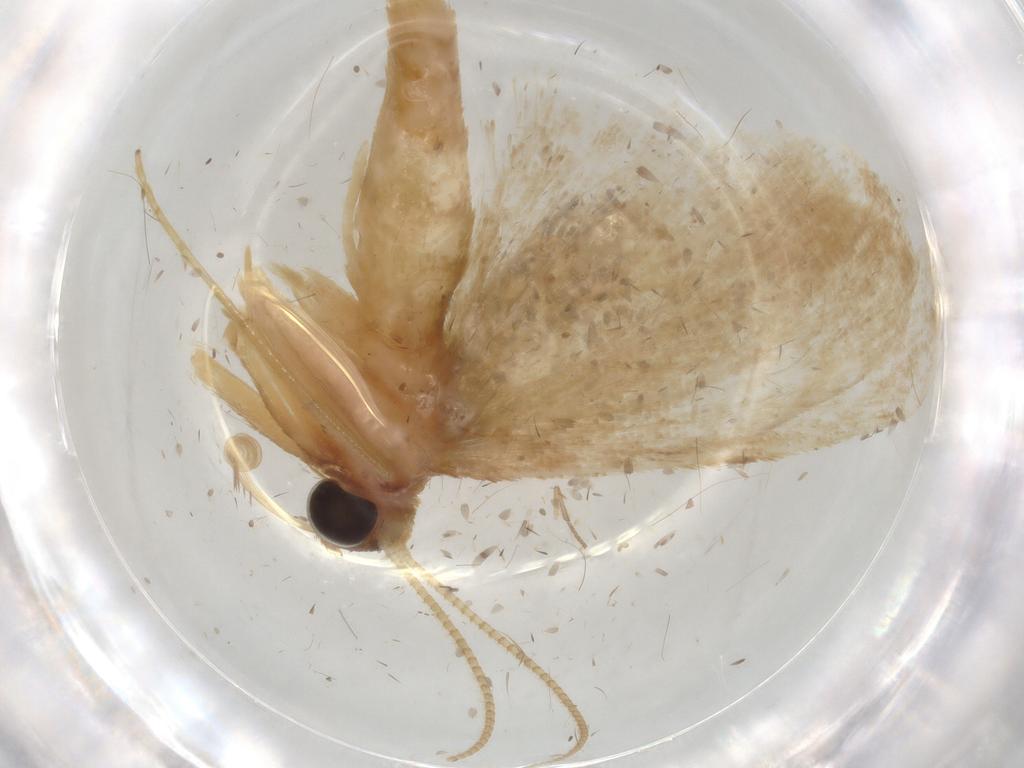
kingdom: Animalia
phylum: Arthropoda
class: Insecta
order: Lepidoptera
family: Geometridae
